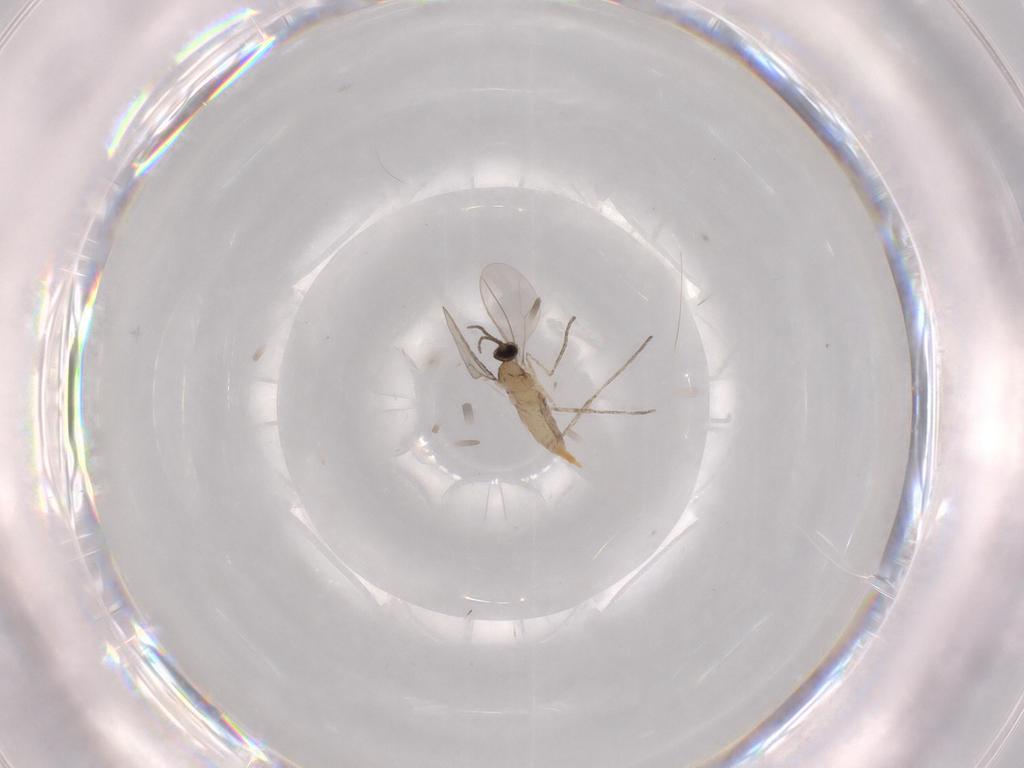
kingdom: Animalia
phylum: Arthropoda
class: Insecta
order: Diptera
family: Cecidomyiidae
